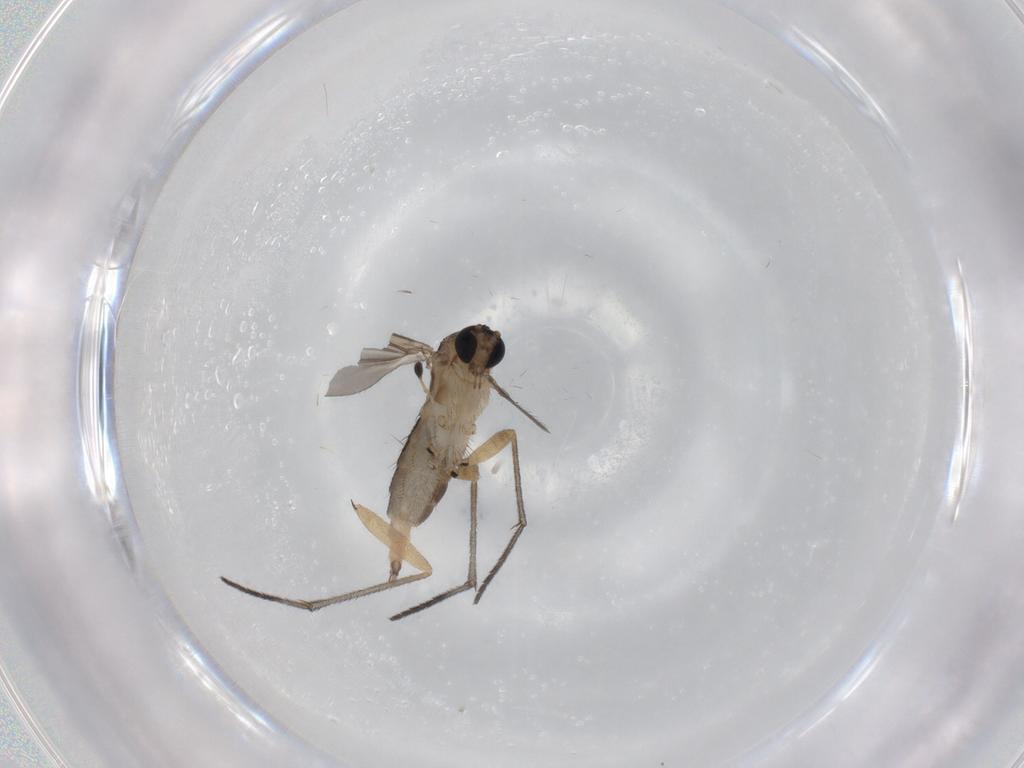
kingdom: Animalia
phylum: Arthropoda
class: Insecta
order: Diptera
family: Sciaridae
